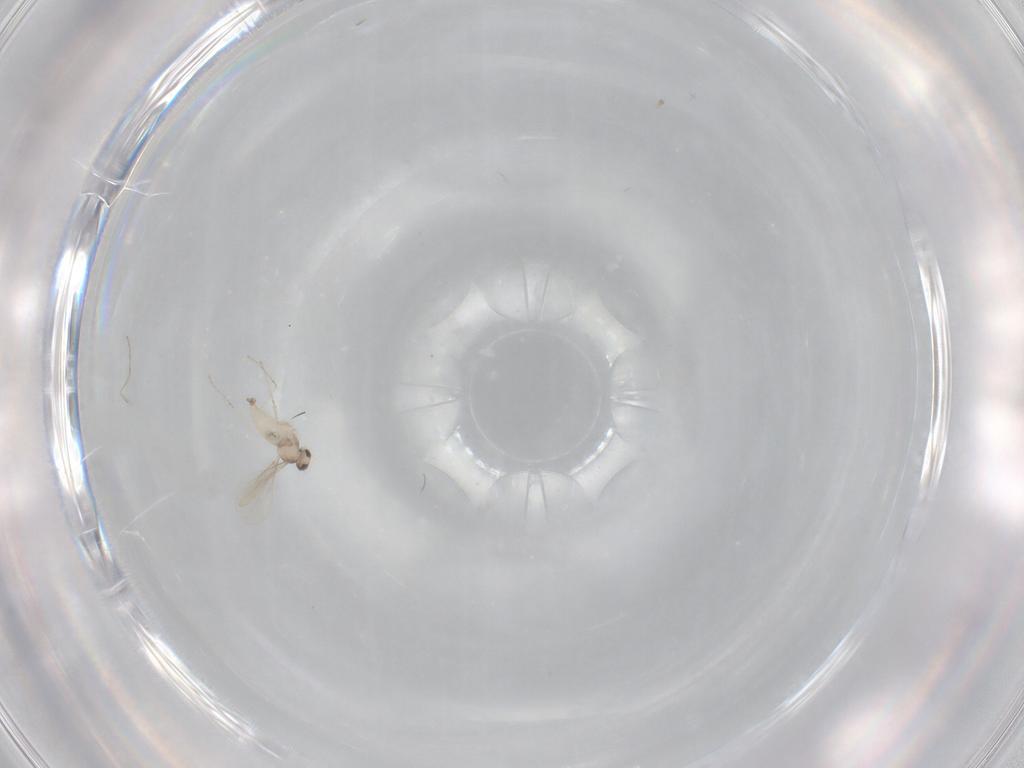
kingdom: Animalia
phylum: Arthropoda
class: Insecta
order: Diptera
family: Cecidomyiidae
